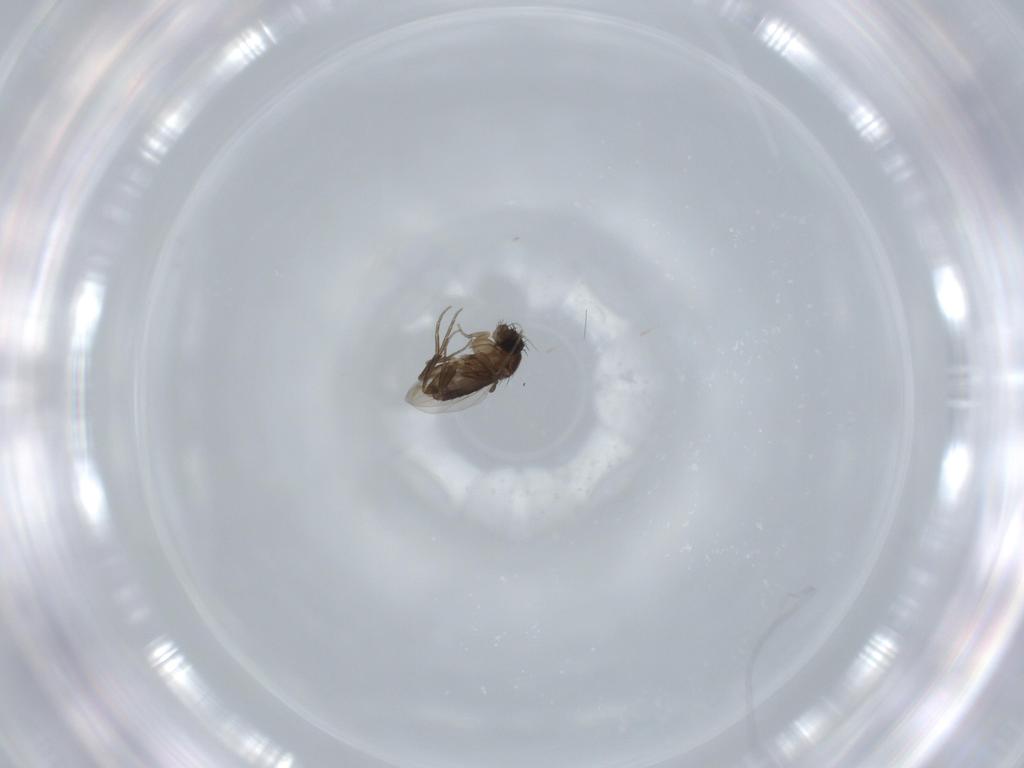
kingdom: Animalia
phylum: Arthropoda
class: Insecta
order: Diptera
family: Phoridae
